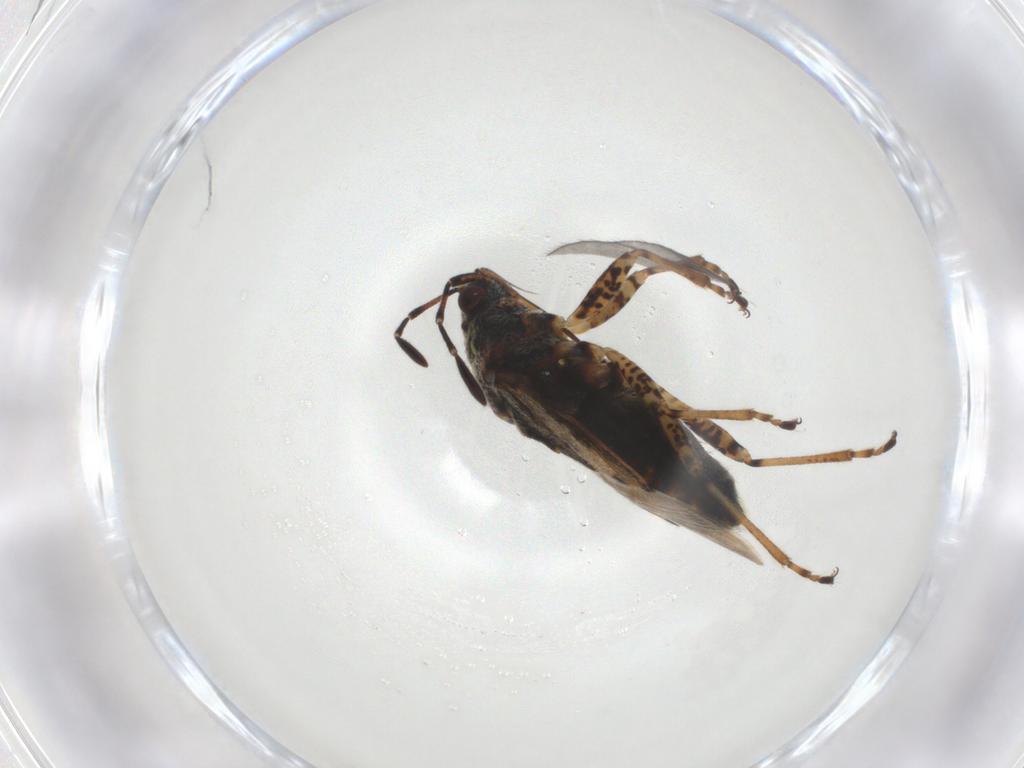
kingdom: Animalia
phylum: Arthropoda
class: Insecta
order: Hemiptera
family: Lygaeidae
